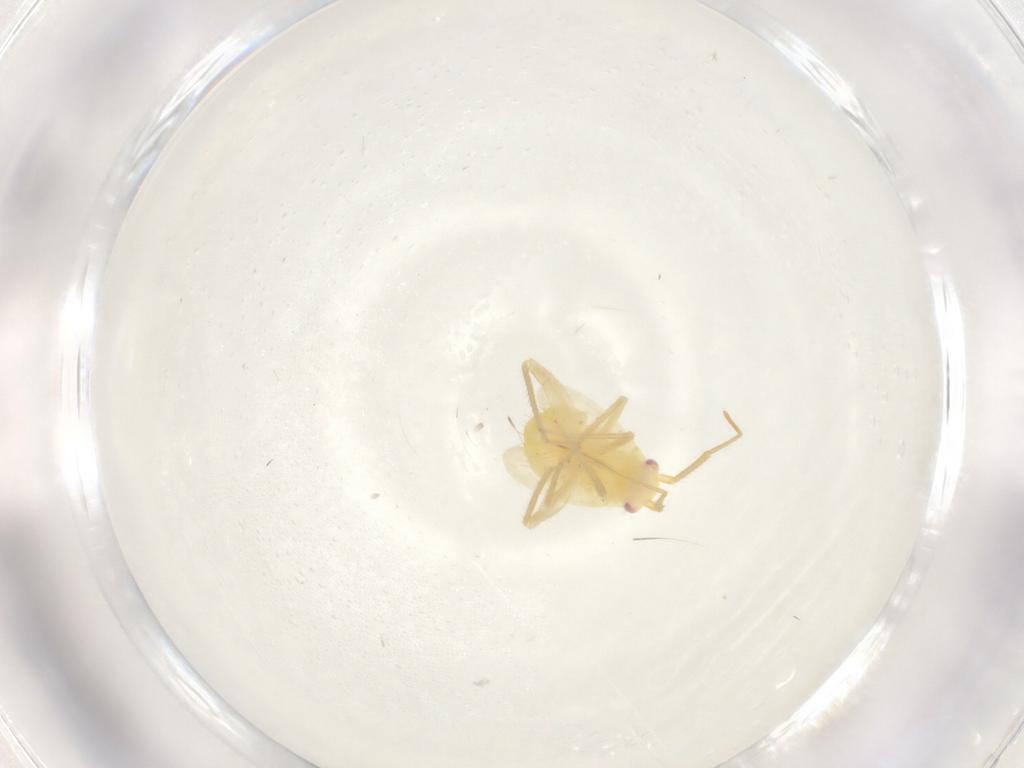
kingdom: Animalia
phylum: Arthropoda
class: Insecta
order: Hemiptera
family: Tingidae
